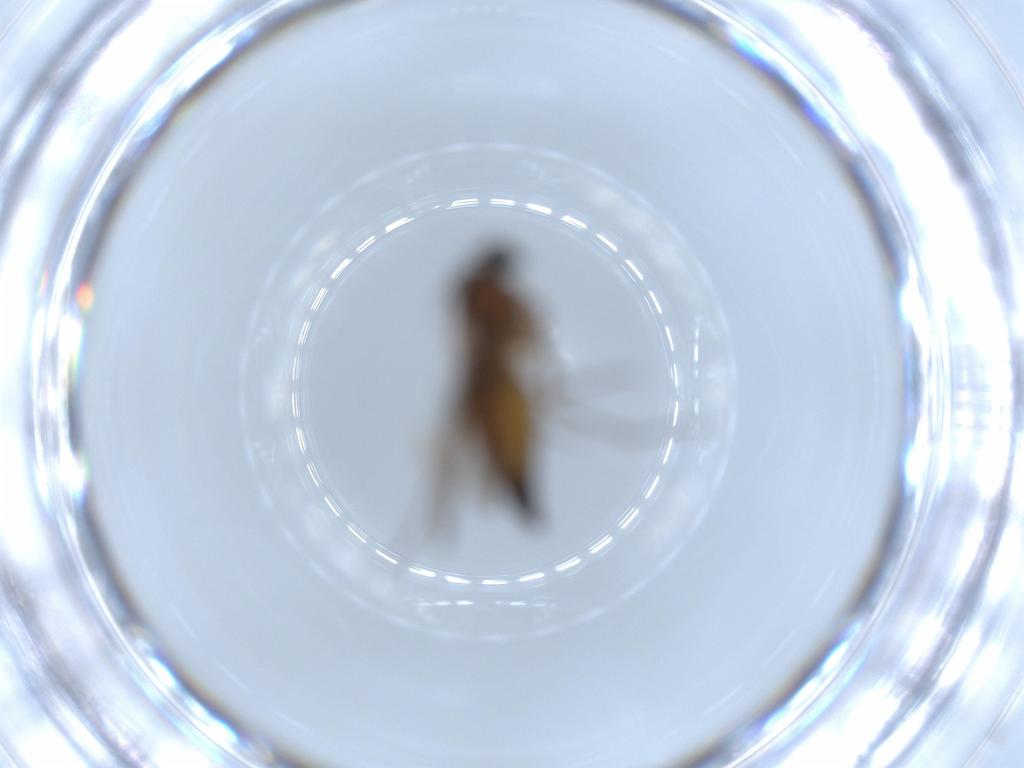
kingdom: Animalia
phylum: Arthropoda
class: Insecta
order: Diptera
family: Sciaridae
